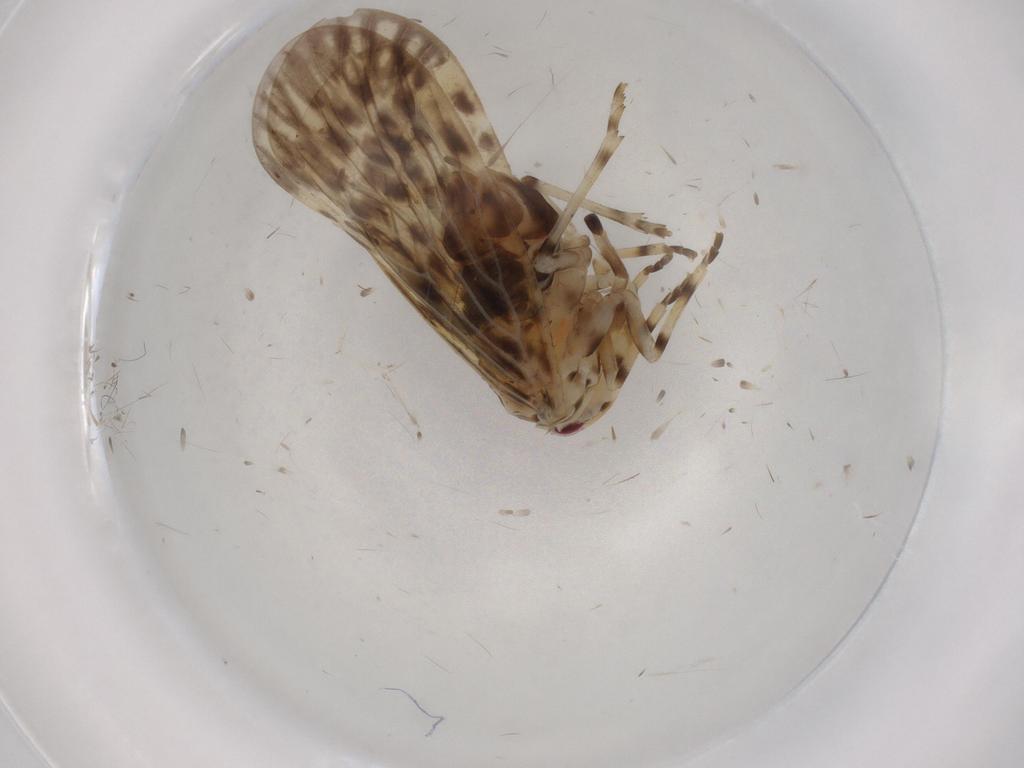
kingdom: Animalia
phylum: Arthropoda
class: Insecta
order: Hemiptera
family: Derbidae
